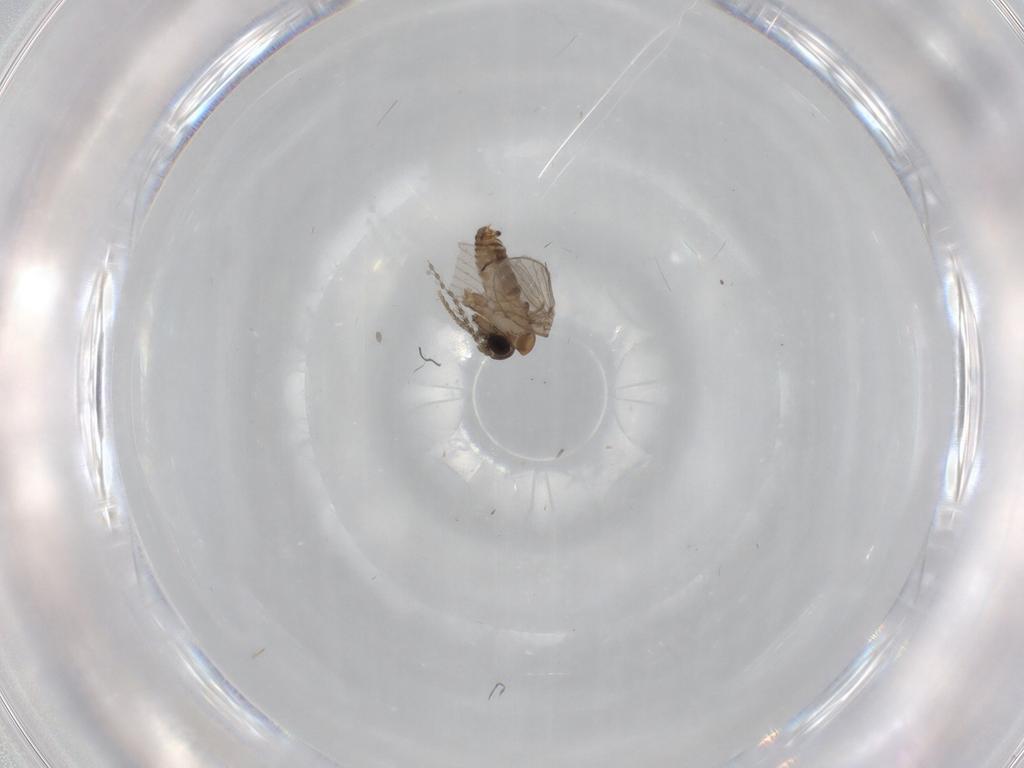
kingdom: Animalia
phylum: Arthropoda
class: Insecta
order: Diptera
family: Cecidomyiidae
